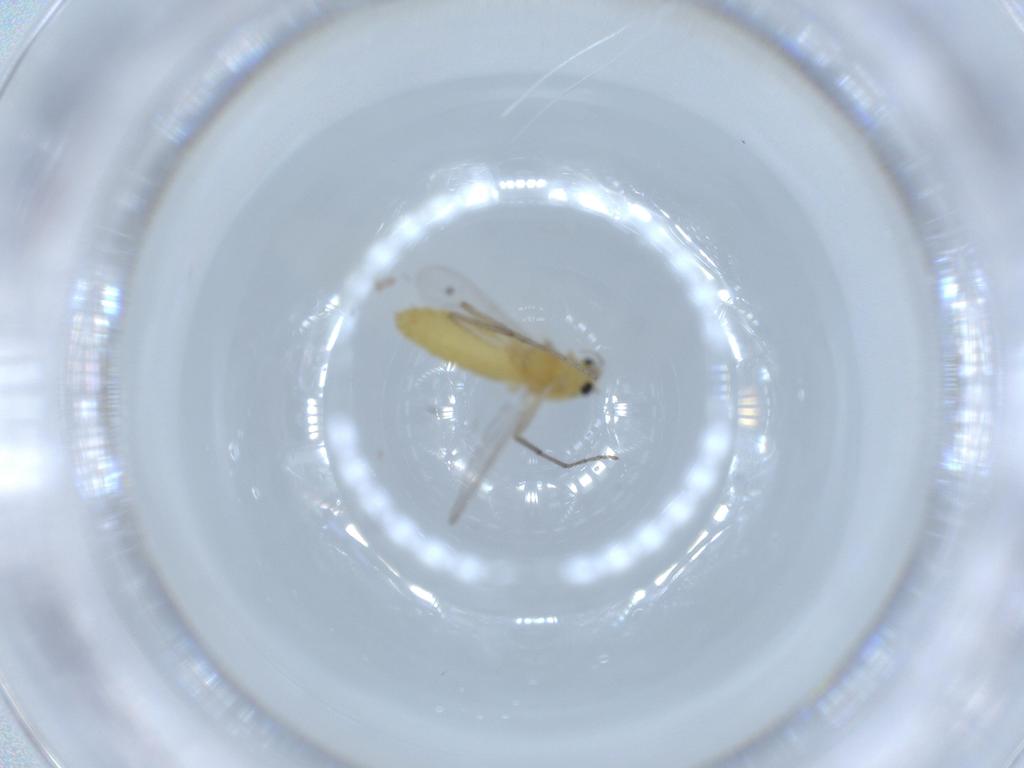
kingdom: Animalia
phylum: Arthropoda
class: Insecta
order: Diptera
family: Chironomidae
